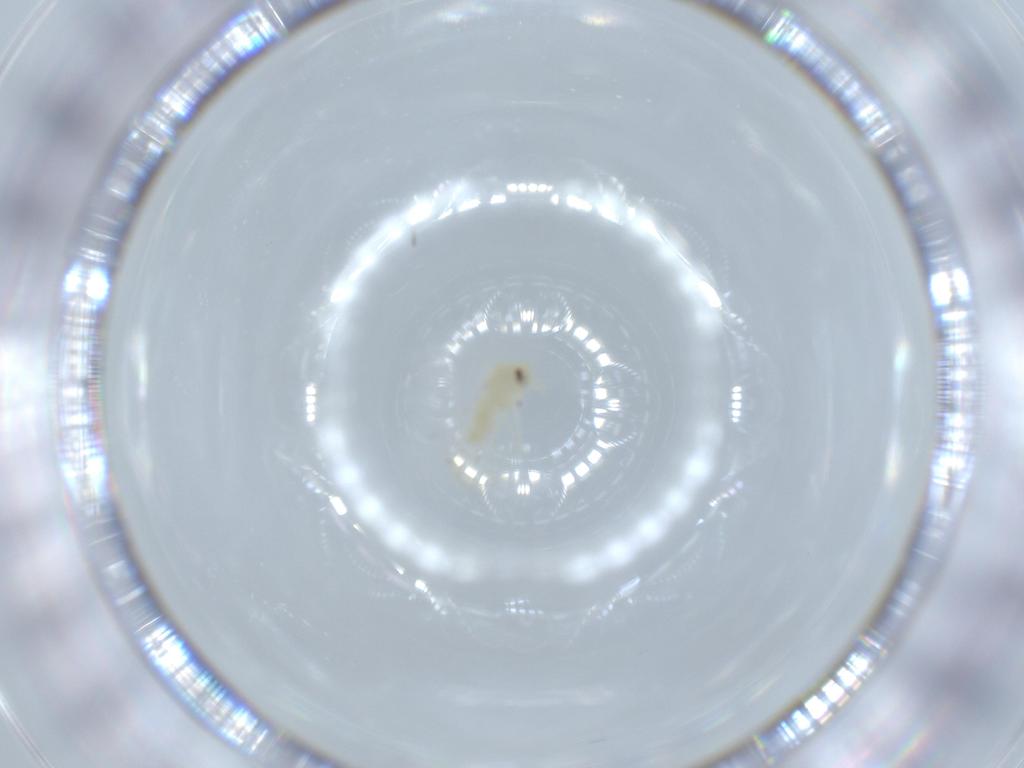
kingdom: Animalia
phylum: Arthropoda
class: Insecta
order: Hemiptera
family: Aleyrodidae
